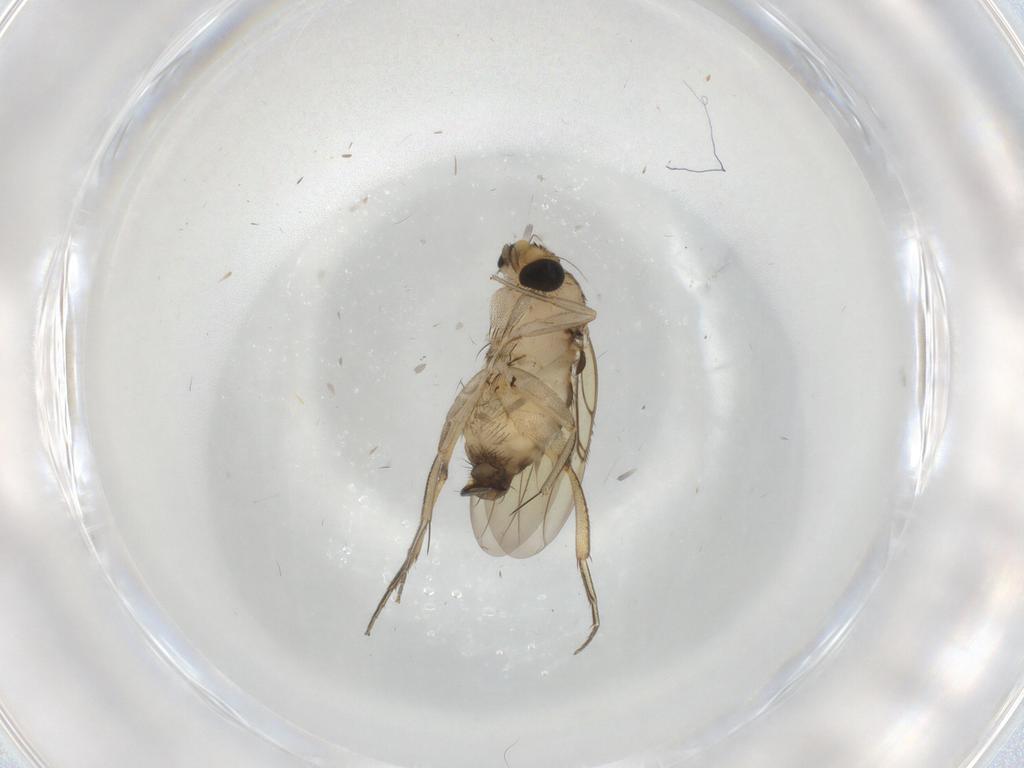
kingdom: Animalia
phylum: Arthropoda
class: Insecta
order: Diptera
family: Phoridae
